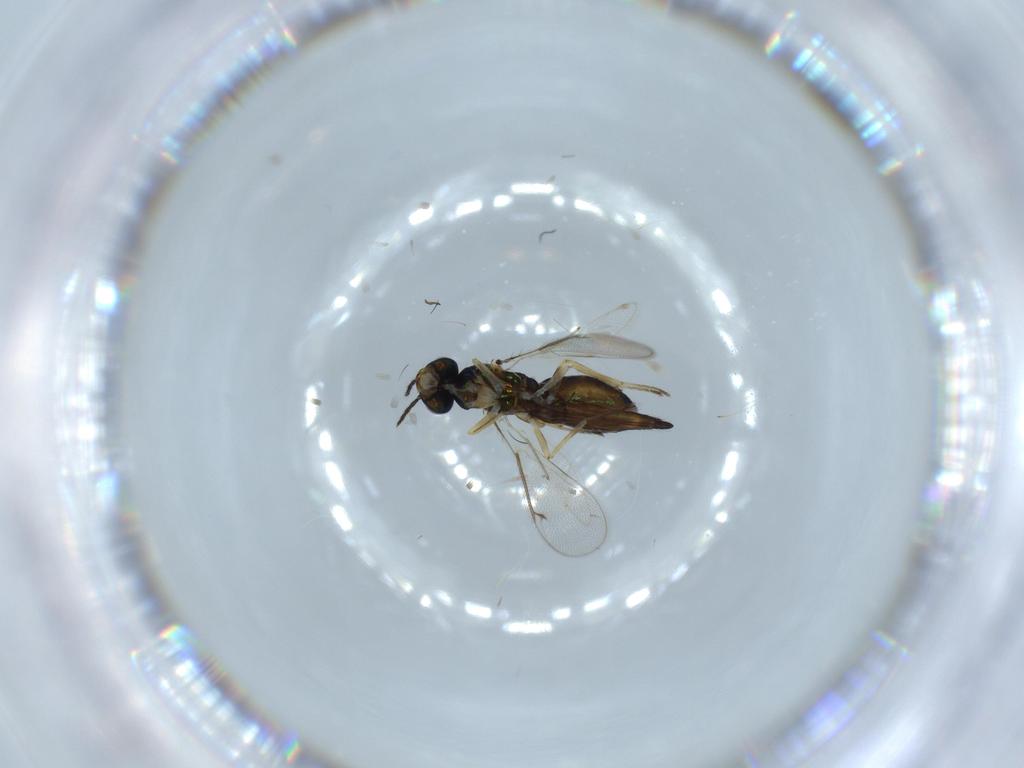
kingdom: Animalia
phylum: Arthropoda
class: Insecta
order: Hymenoptera
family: Eulophidae
